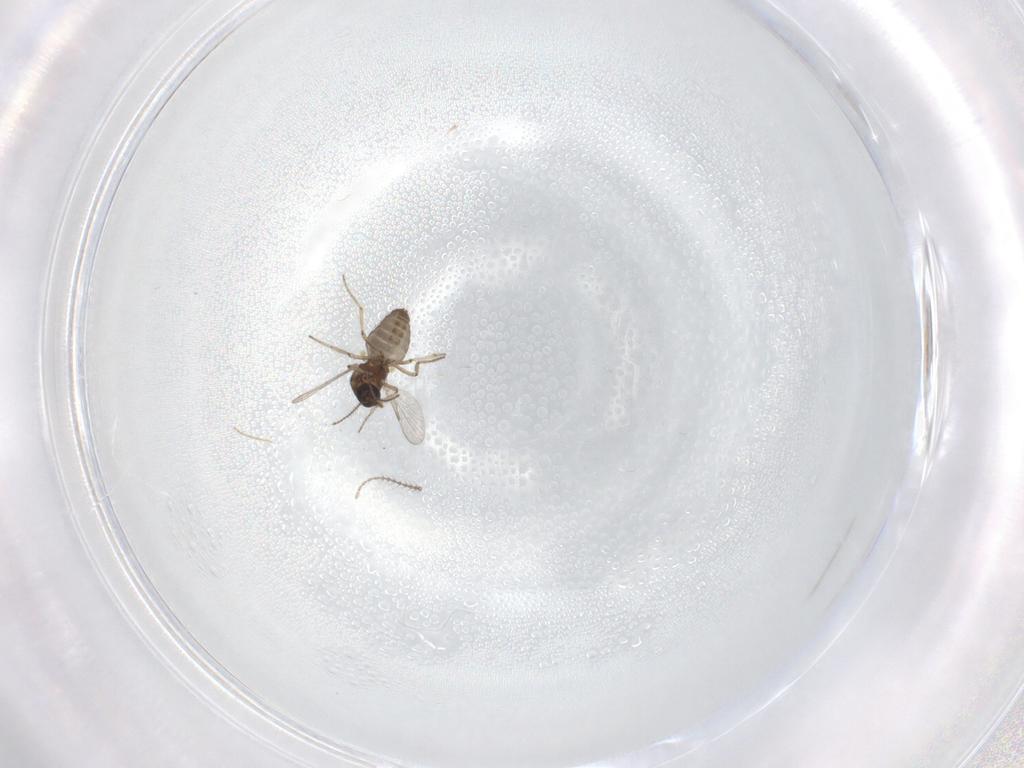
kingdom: Animalia
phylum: Arthropoda
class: Insecta
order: Diptera
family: Ceratopogonidae
